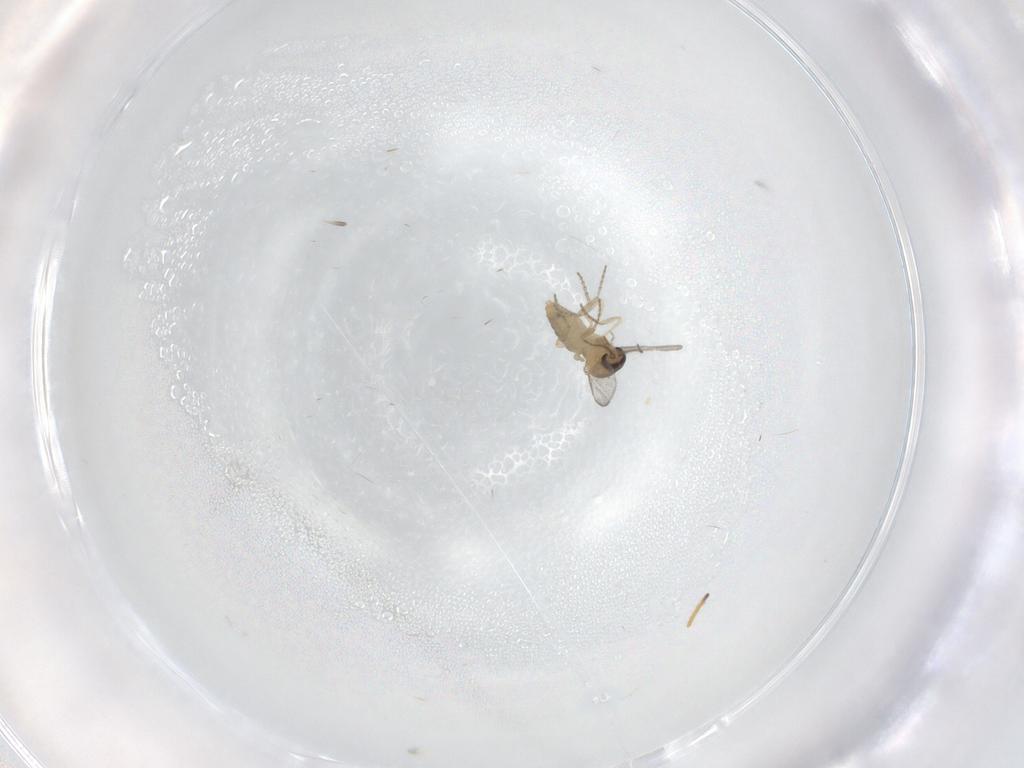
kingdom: Animalia
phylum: Arthropoda
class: Insecta
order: Diptera
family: Ceratopogonidae
